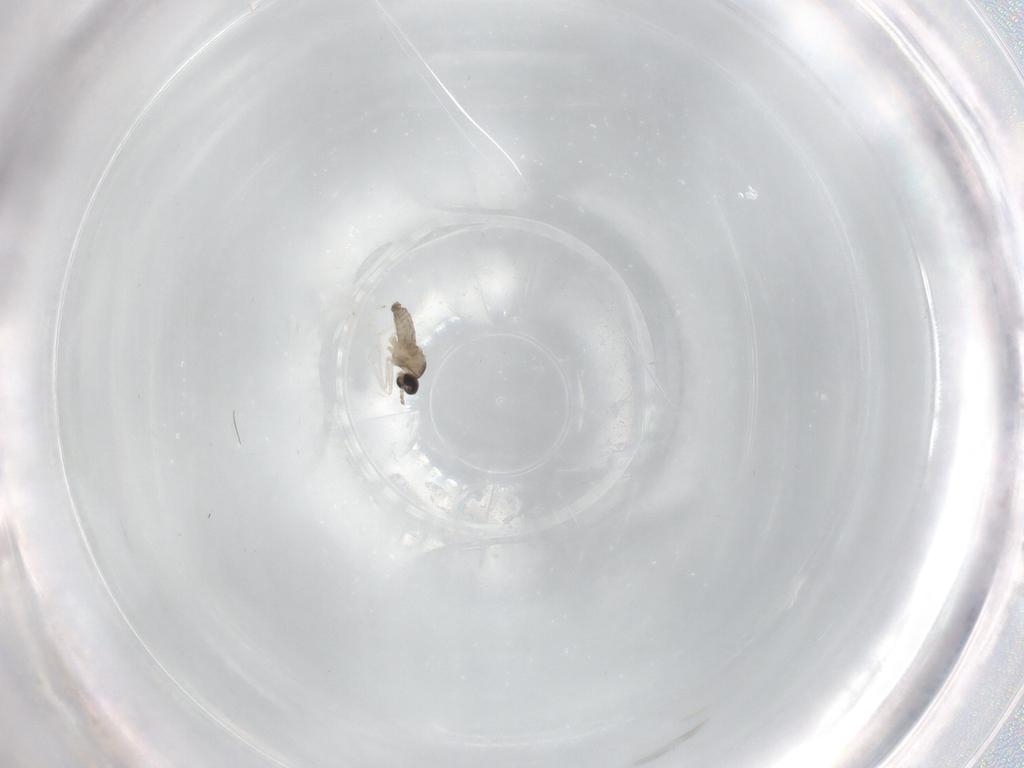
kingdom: Animalia
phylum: Arthropoda
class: Insecta
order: Diptera
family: Cecidomyiidae
